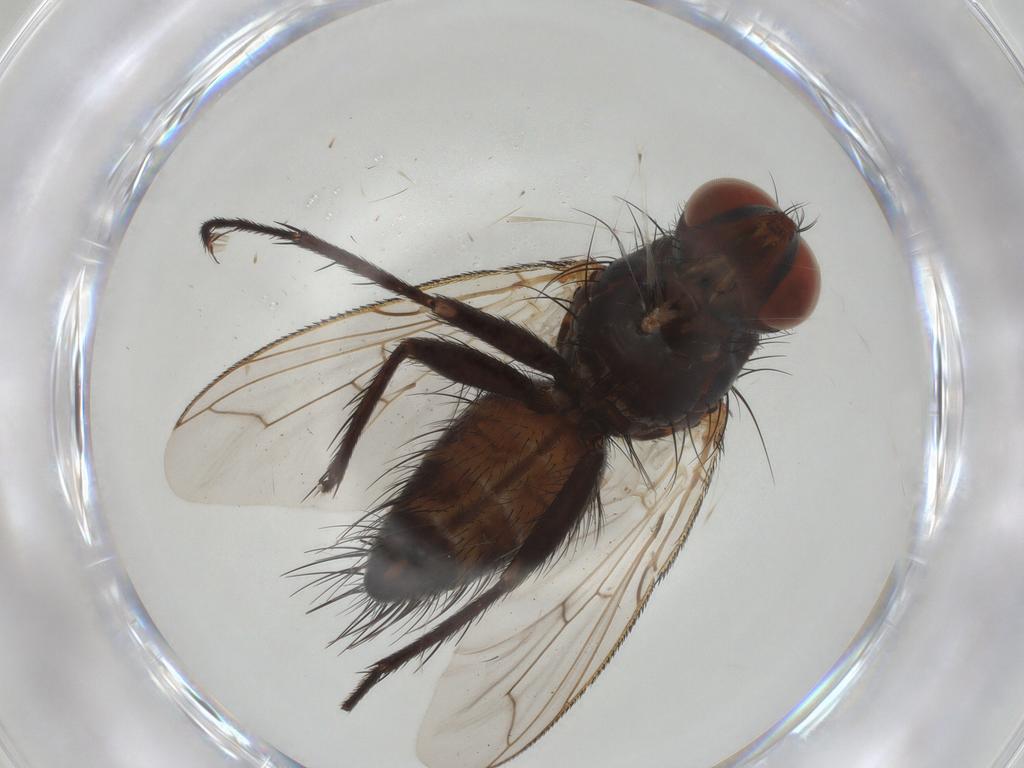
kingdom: Animalia
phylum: Arthropoda
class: Insecta
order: Diptera
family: Tachinidae
